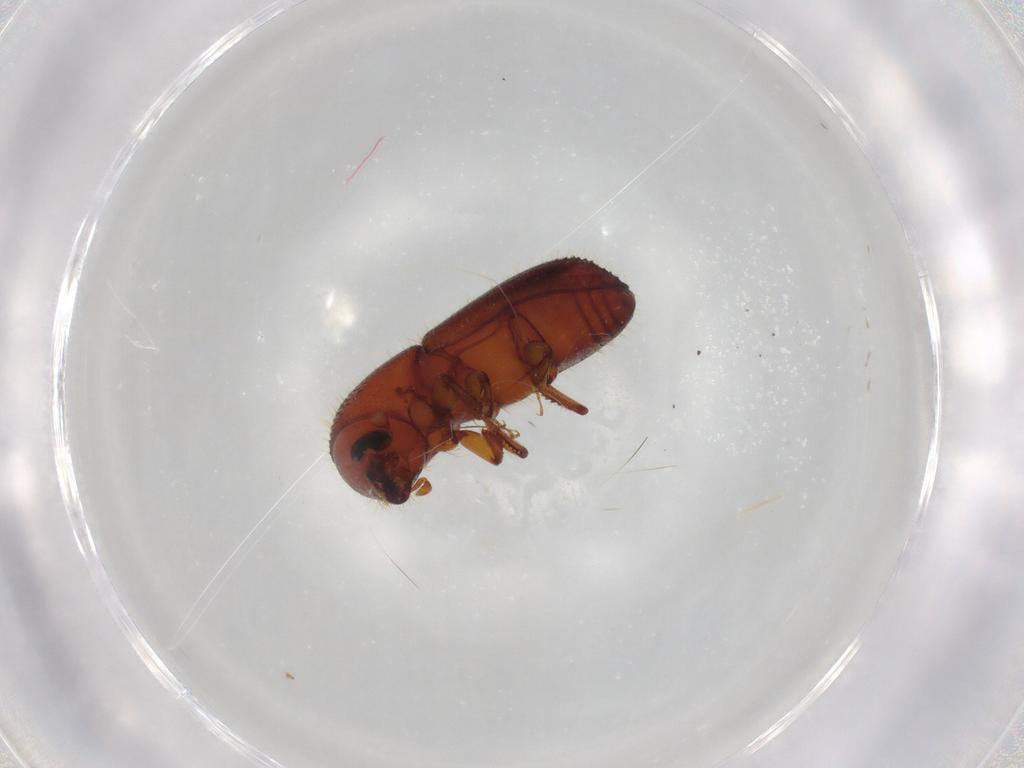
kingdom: Animalia
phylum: Arthropoda
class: Insecta
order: Coleoptera
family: Curculionidae
